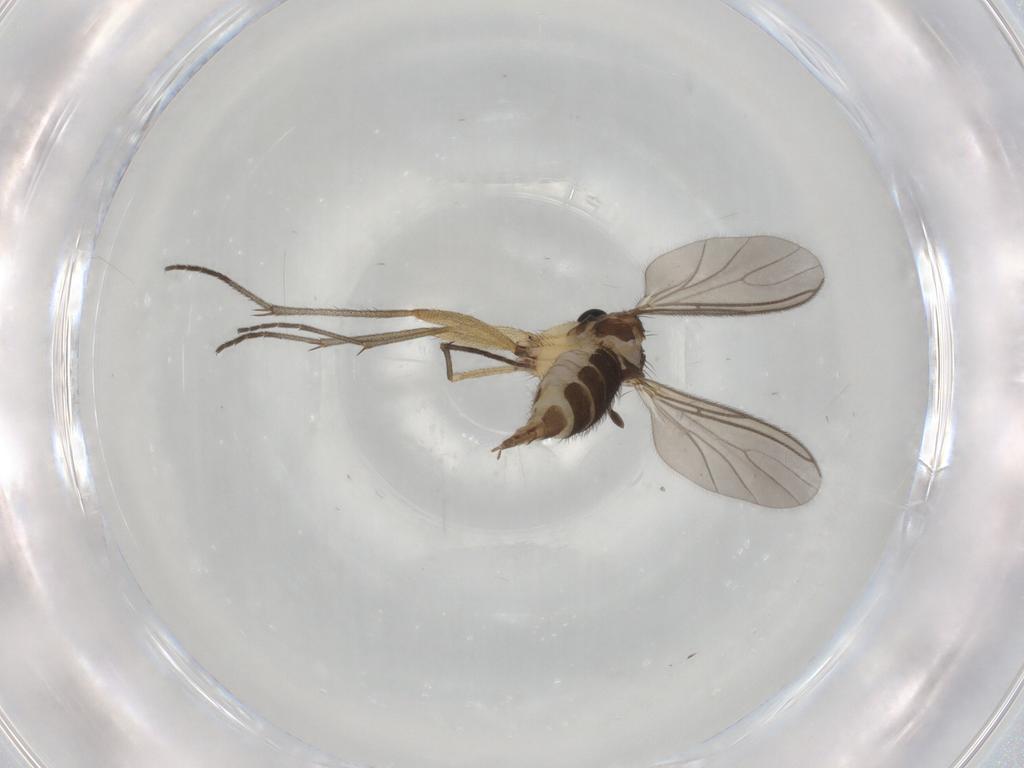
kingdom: Animalia
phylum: Arthropoda
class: Insecta
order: Diptera
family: Sciaridae
